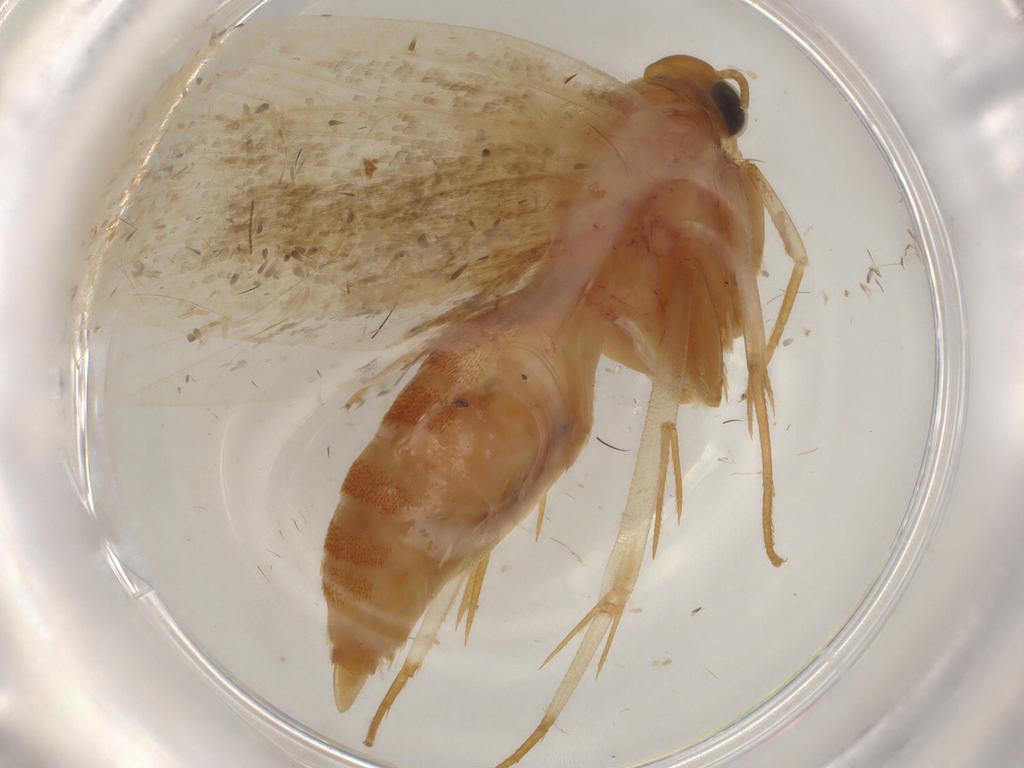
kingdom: Animalia
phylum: Arthropoda
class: Insecta
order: Lepidoptera
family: Oecophoridae
